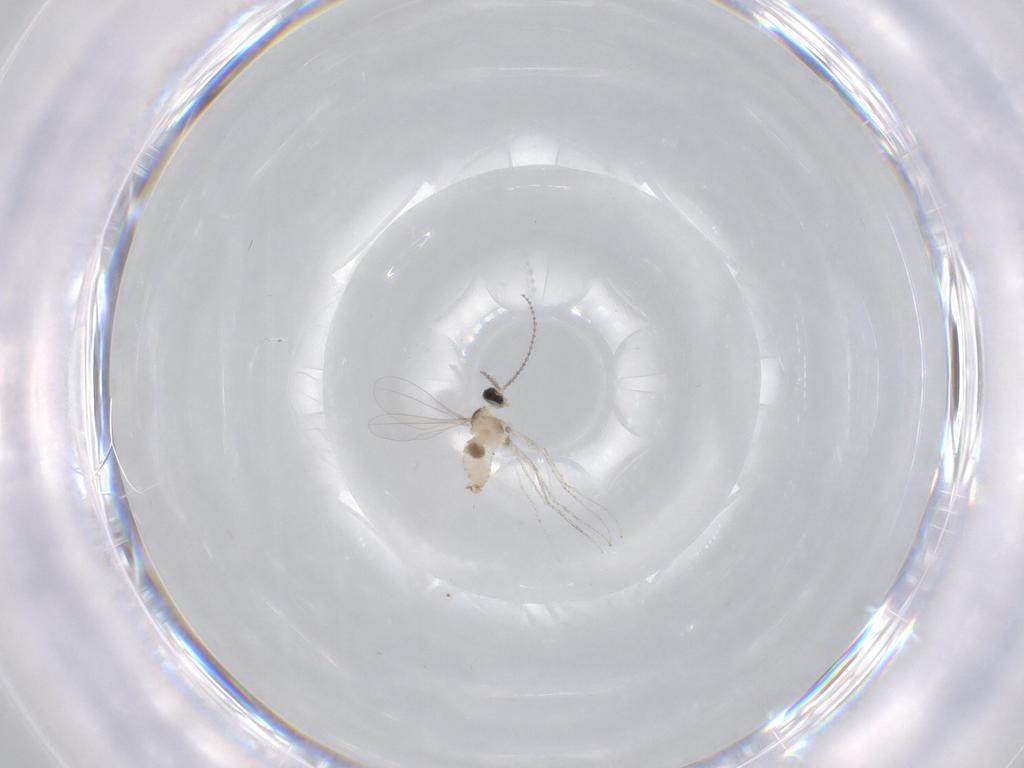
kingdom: Animalia
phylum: Arthropoda
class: Insecta
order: Diptera
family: Cecidomyiidae
